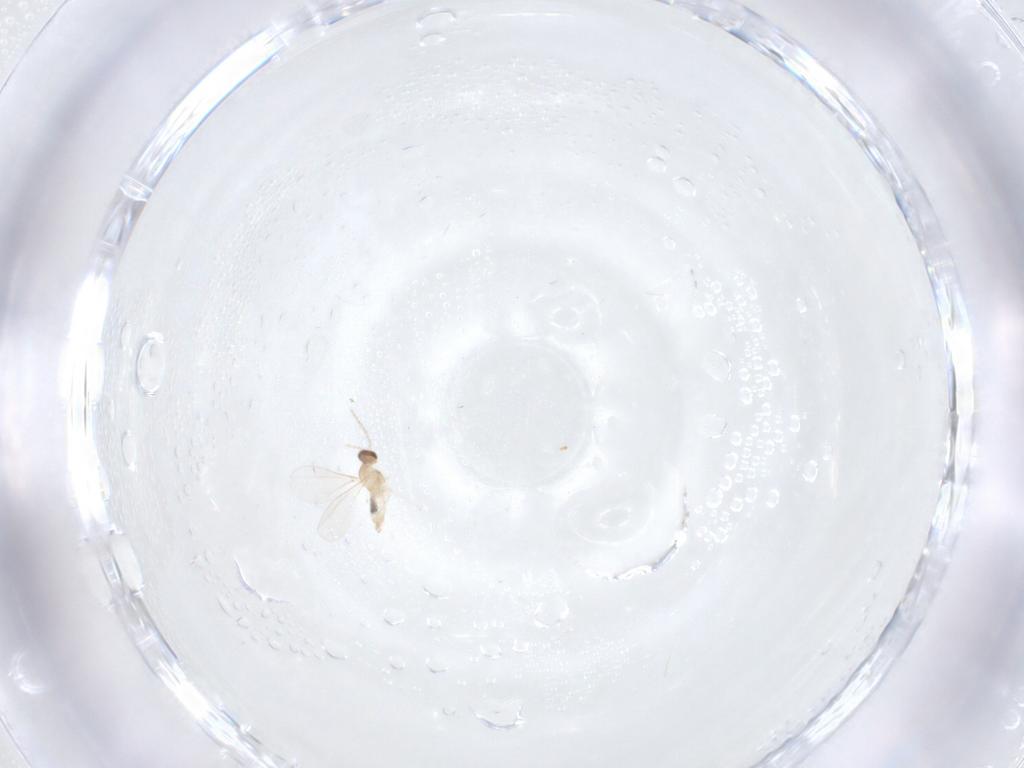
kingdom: Animalia
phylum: Arthropoda
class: Insecta
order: Diptera
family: Cecidomyiidae
